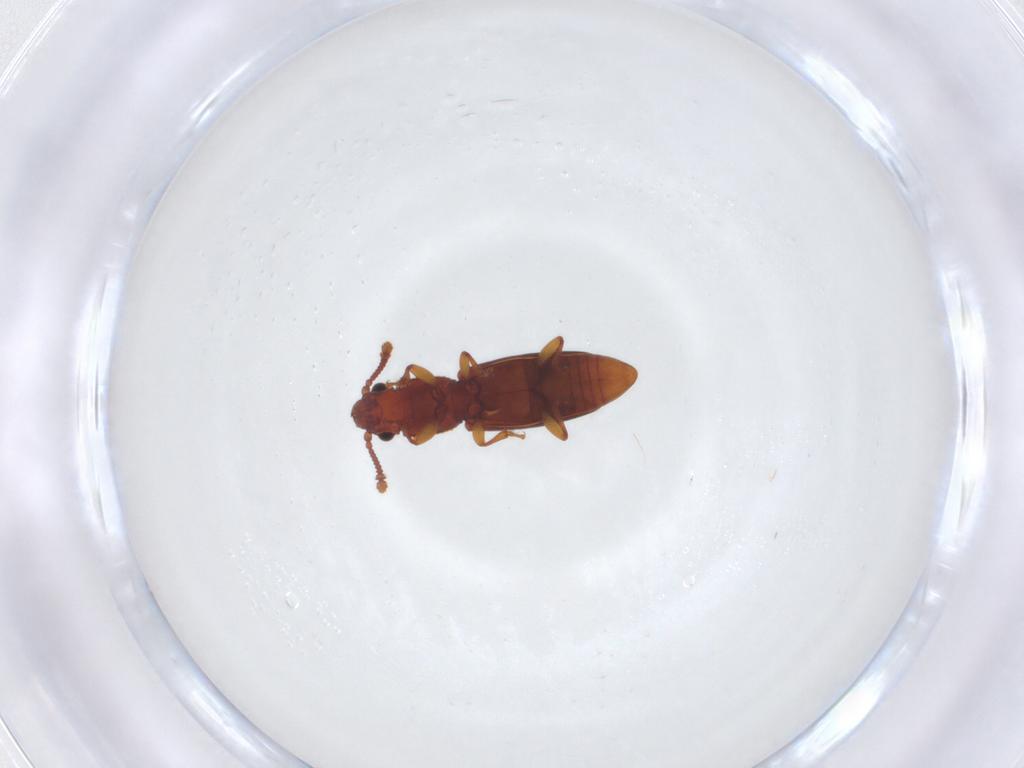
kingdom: Animalia
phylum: Arthropoda
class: Insecta
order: Coleoptera
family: Monotomidae
